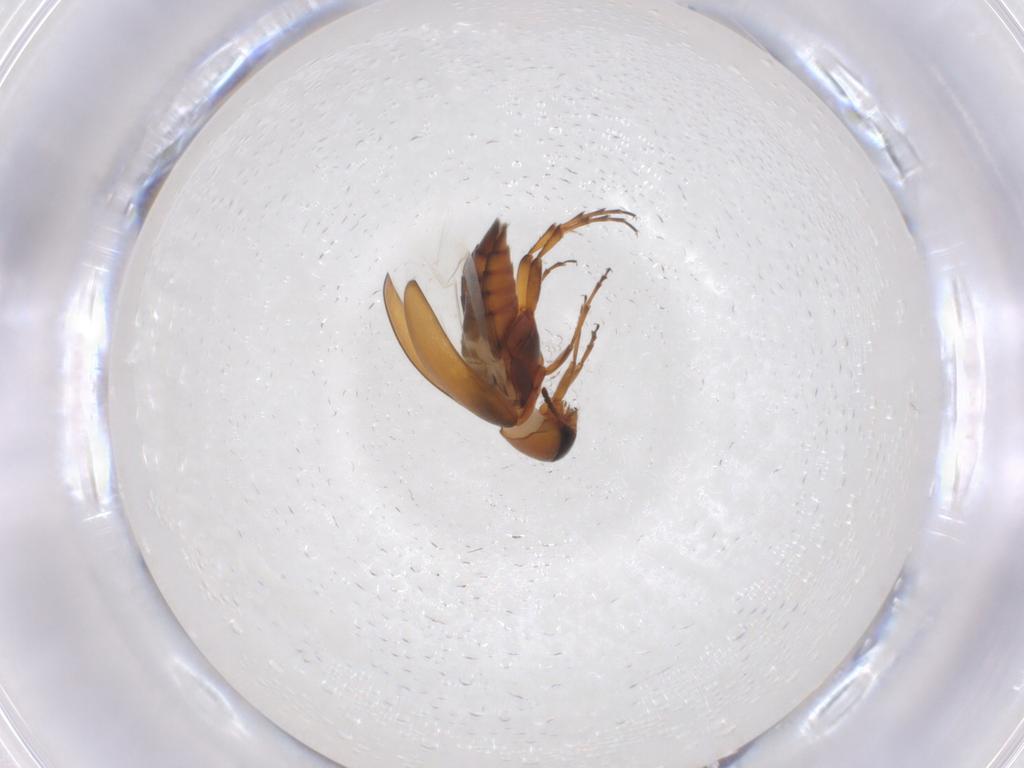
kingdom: Animalia
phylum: Arthropoda
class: Insecta
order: Coleoptera
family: Scraptiidae
